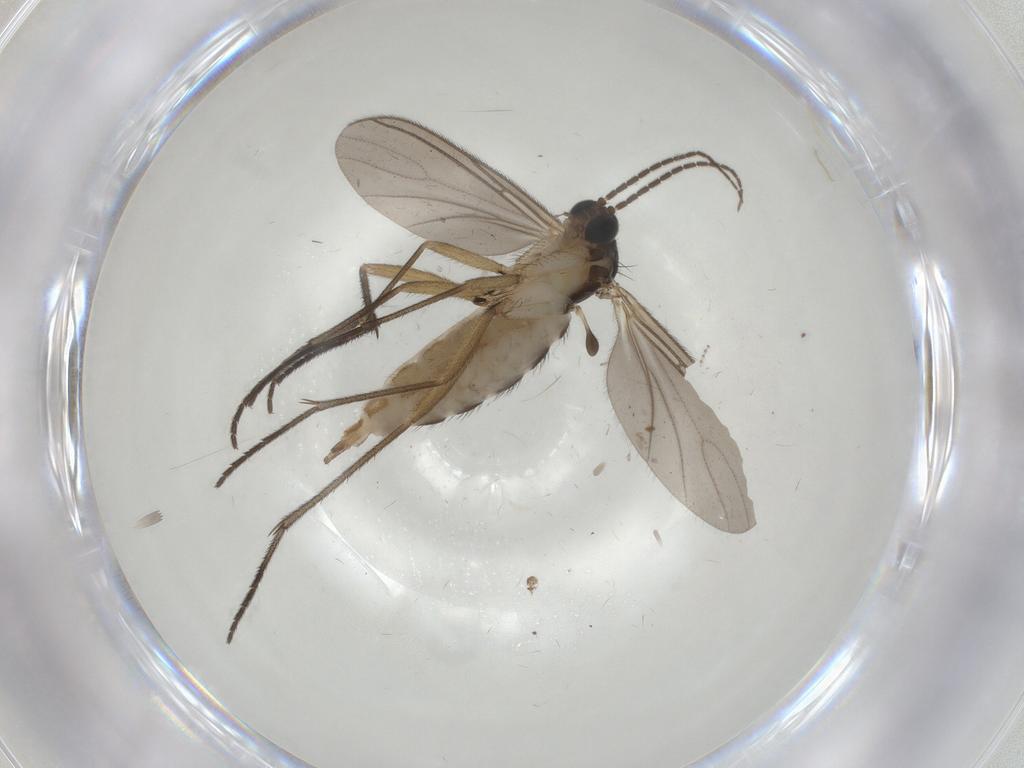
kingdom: Animalia
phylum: Arthropoda
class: Insecta
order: Diptera
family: Sciaridae
